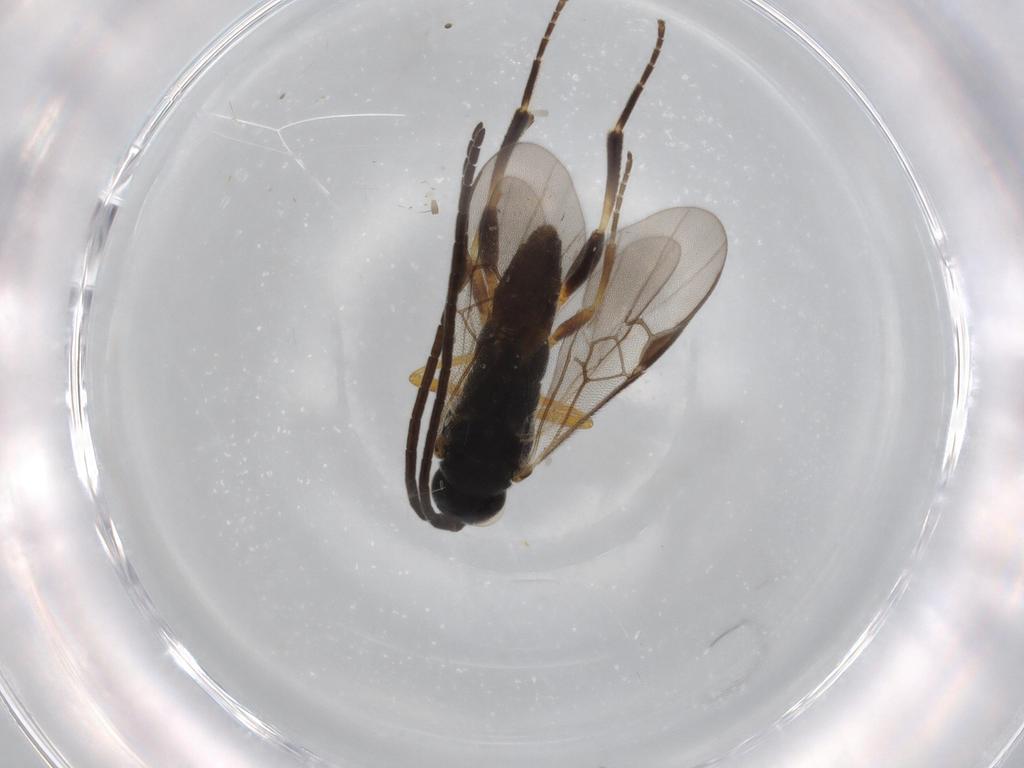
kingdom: Animalia
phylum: Arthropoda
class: Insecta
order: Hymenoptera
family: Braconidae
